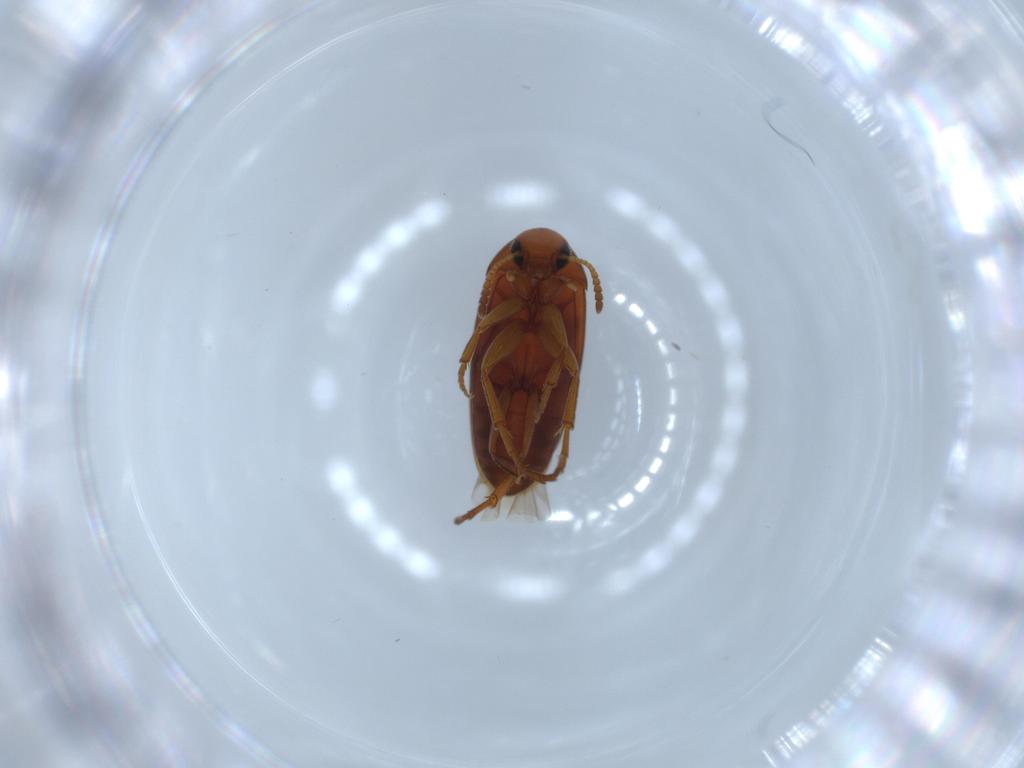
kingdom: Animalia
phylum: Arthropoda
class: Insecta
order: Coleoptera
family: Scraptiidae
